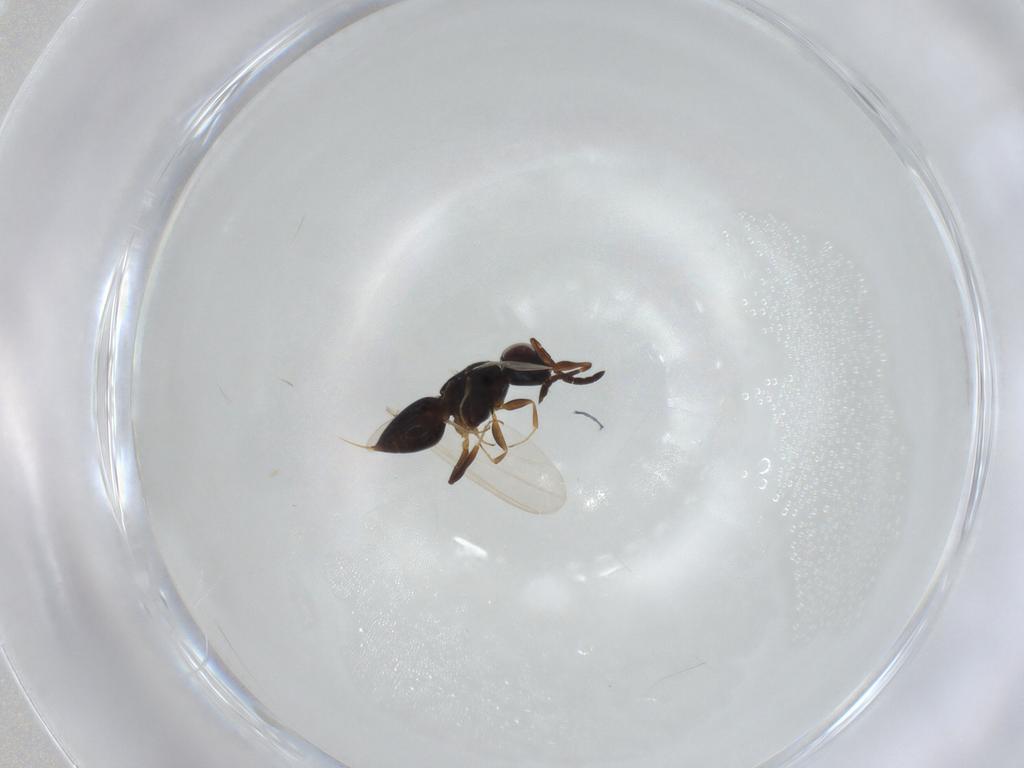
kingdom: Animalia
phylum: Arthropoda
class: Insecta
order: Hymenoptera
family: Ceraphronidae
